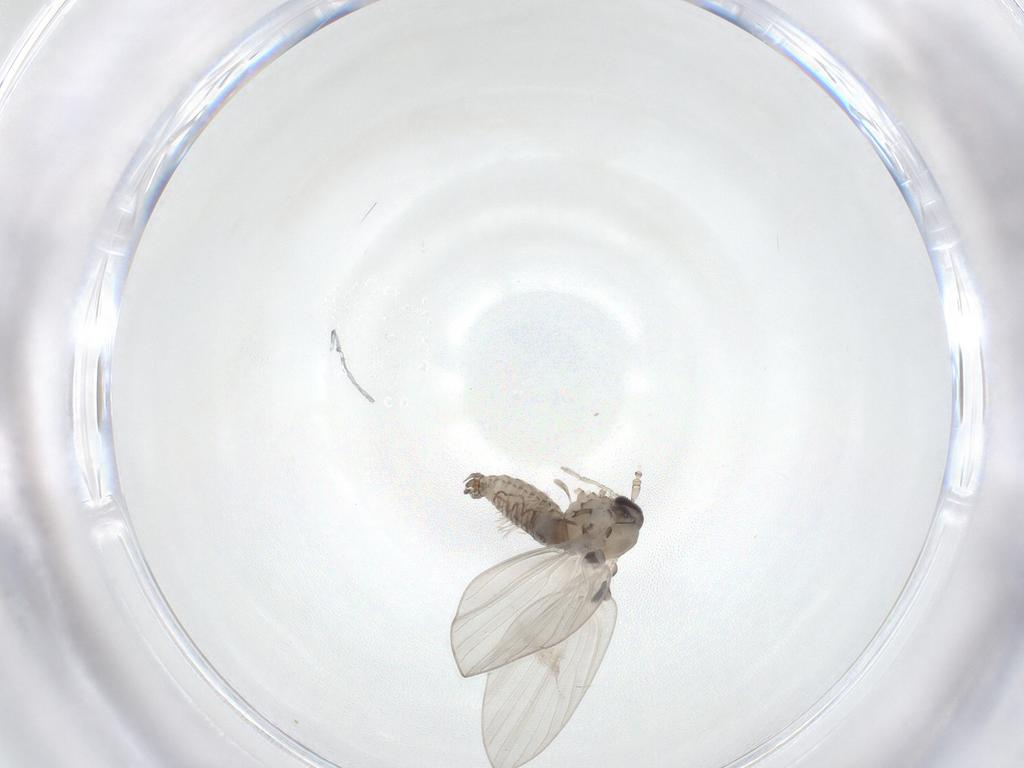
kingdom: Animalia
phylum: Arthropoda
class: Insecta
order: Diptera
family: Psychodidae
